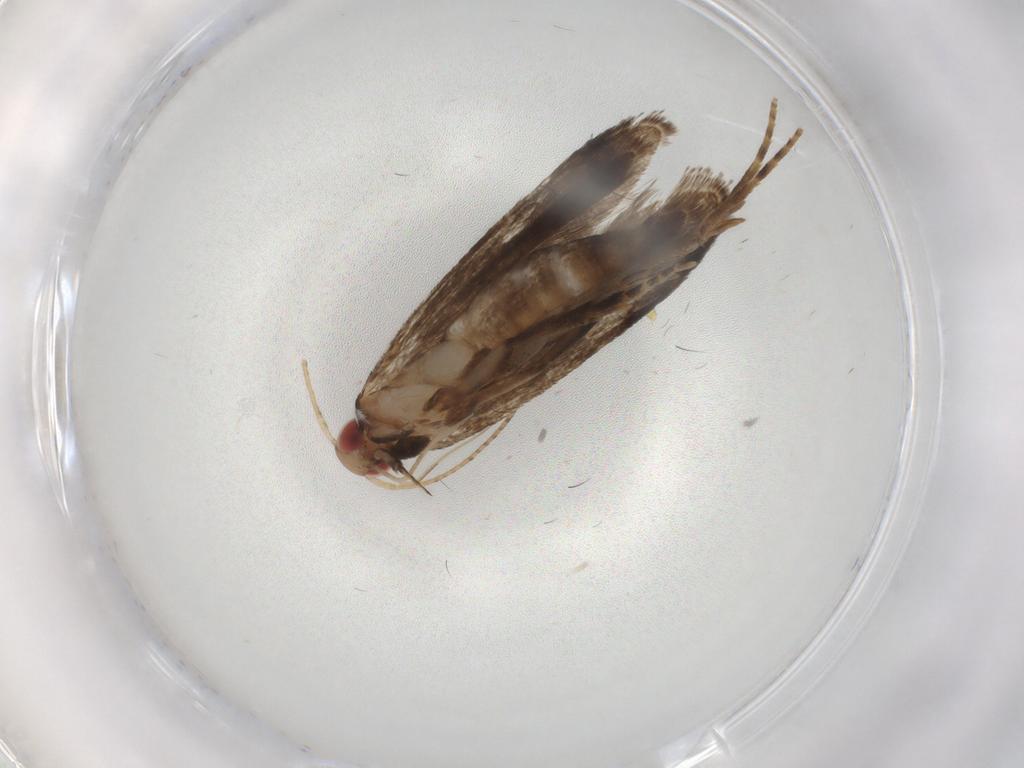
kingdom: Animalia
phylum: Arthropoda
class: Insecta
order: Lepidoptera
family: Gelechiidae
